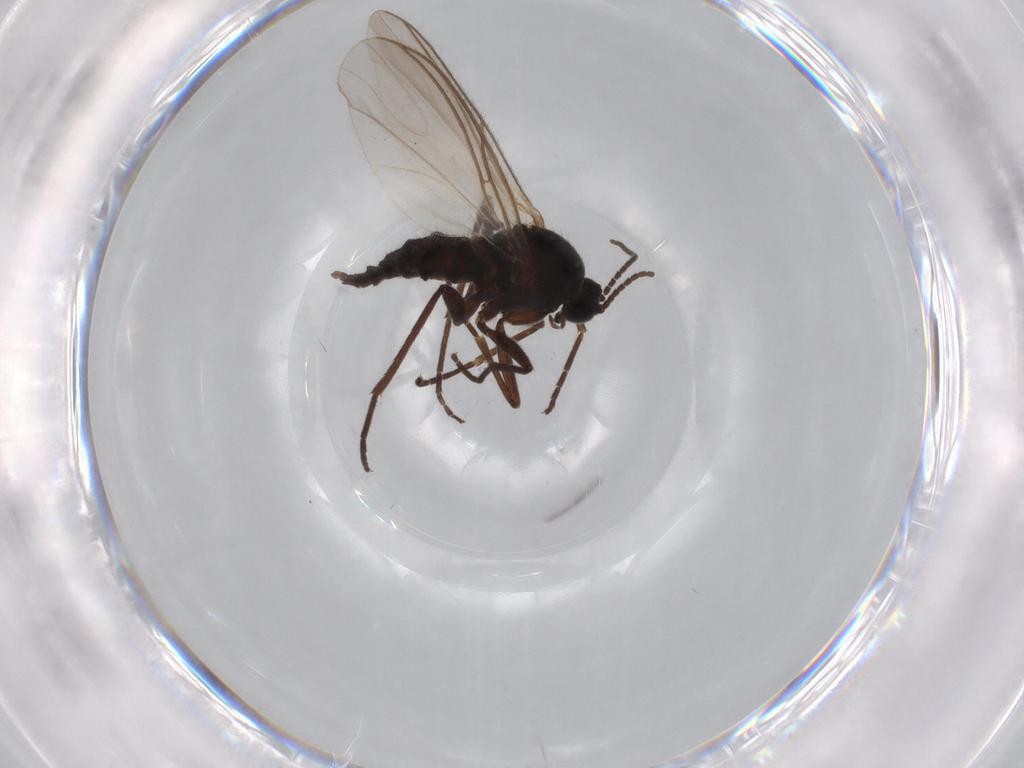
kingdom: Animalia
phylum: Arthropoda
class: Insecta
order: Diptera
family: Sciaridae
